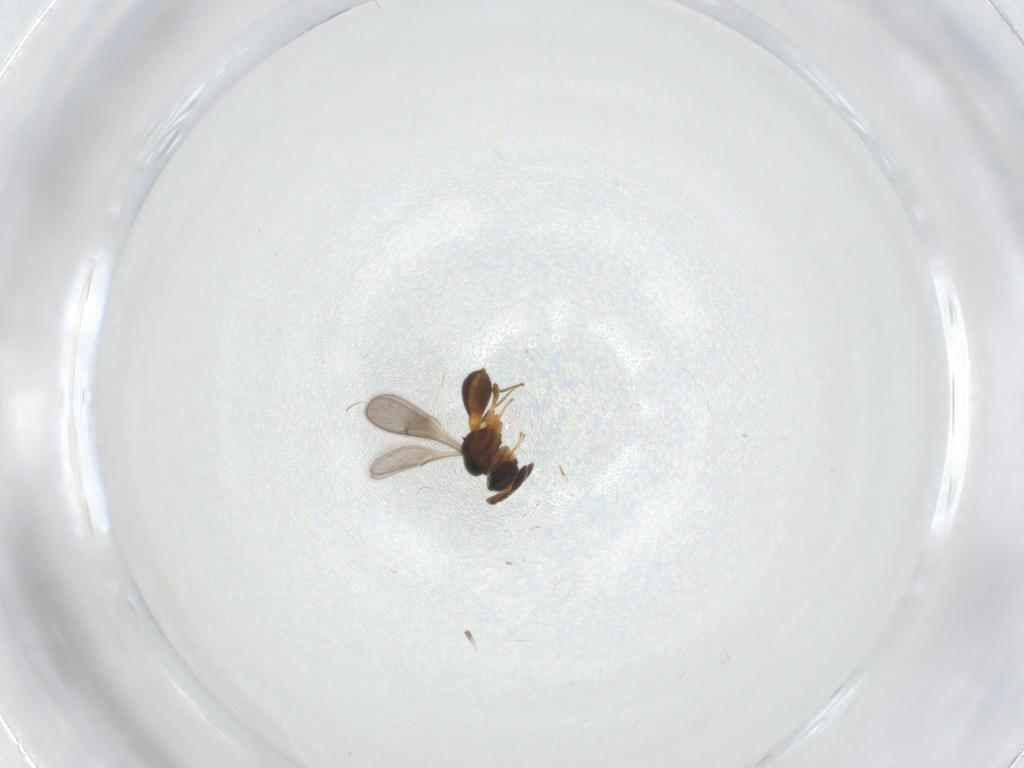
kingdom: Animalia
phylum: Arthropoda
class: Insecta
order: Hymenoptera
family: Scelionidae
